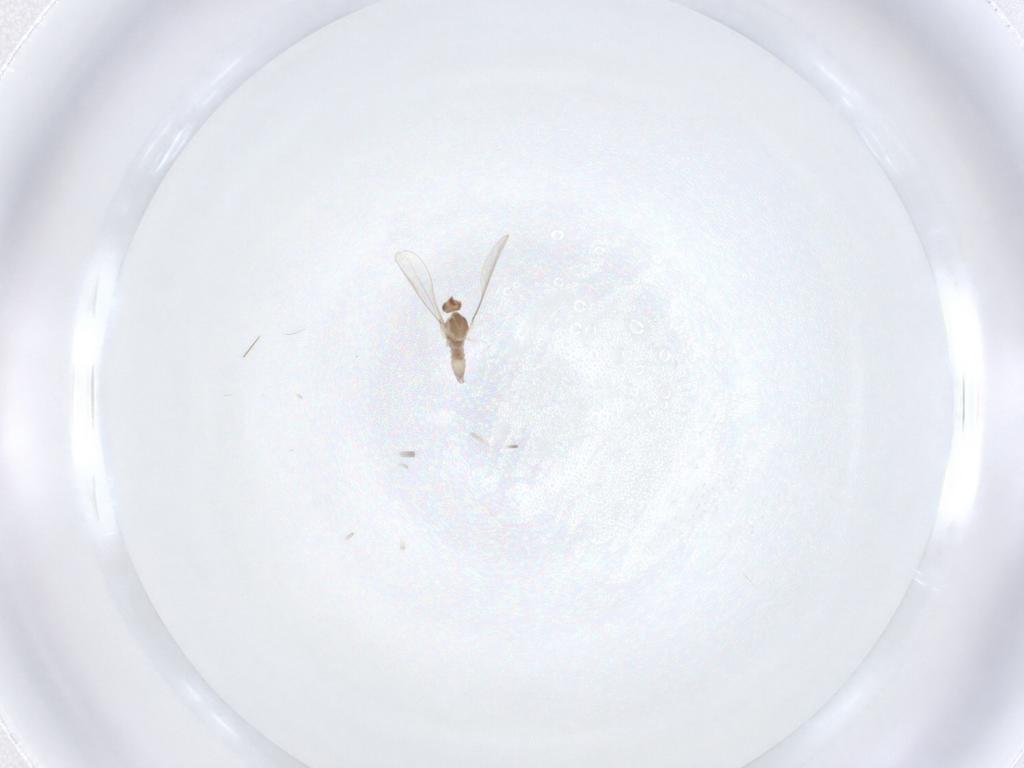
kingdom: Animalia
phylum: Arthropoda
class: Insecta
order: Diptera
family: Cecidomyiidae
